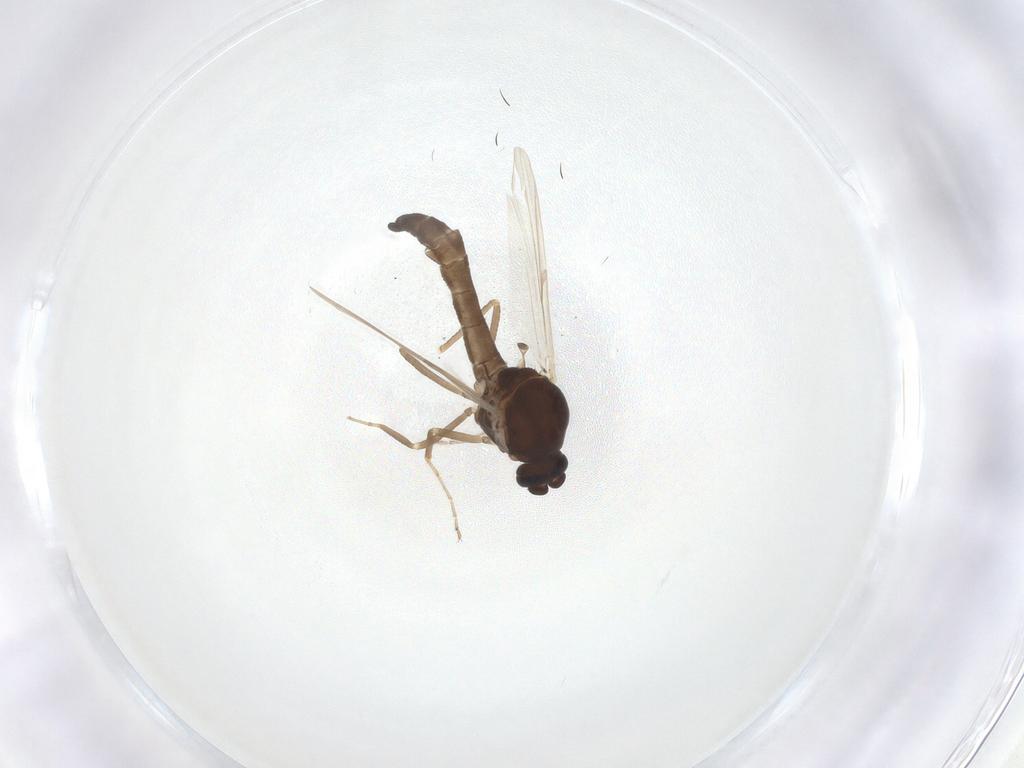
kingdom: Animalia
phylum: Arthropoda
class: Insecta
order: Diptera
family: Ceratopogonidae
